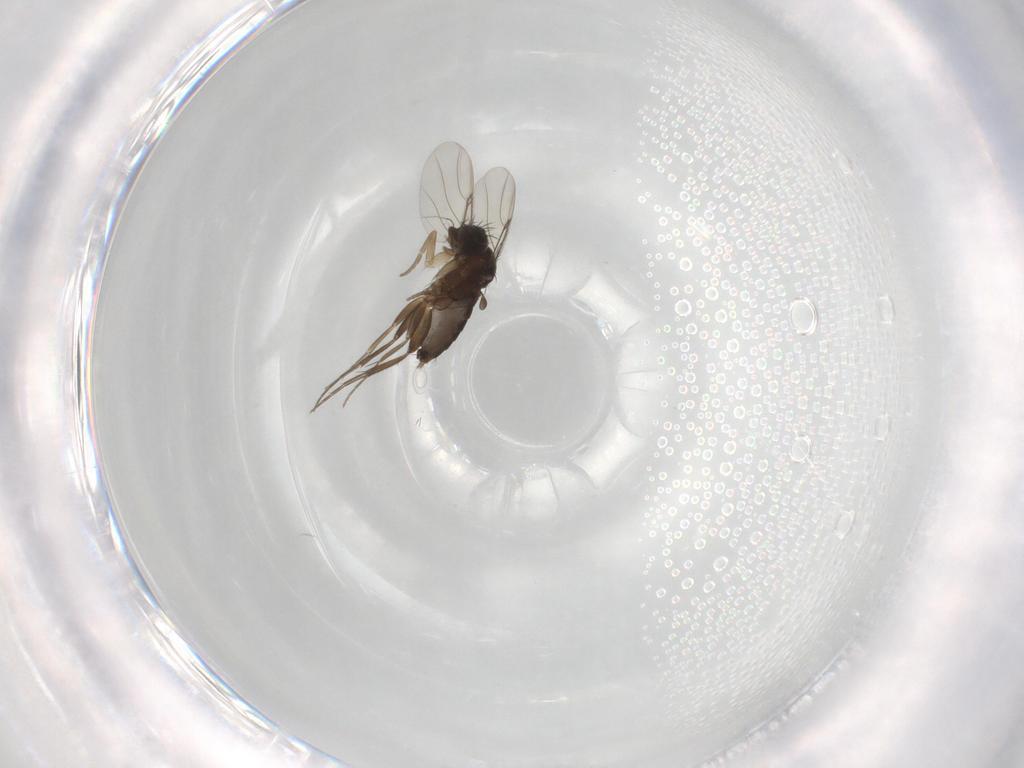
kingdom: Animalia
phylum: Arthropoda
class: Insecta
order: Diptera
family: Phoridae
